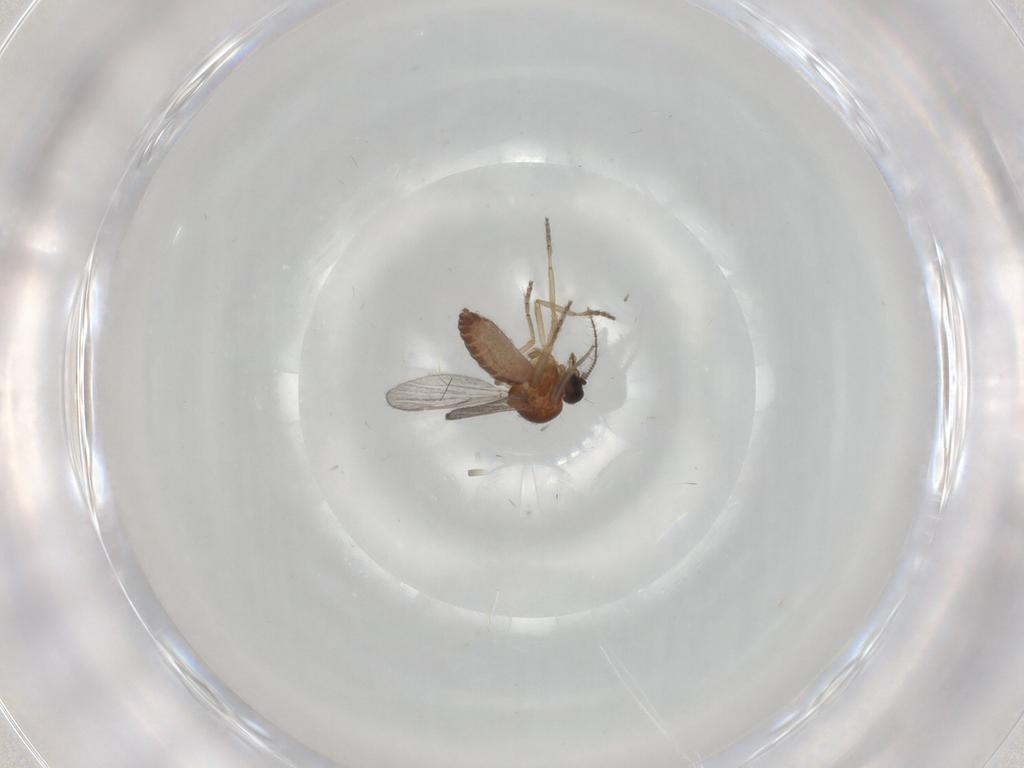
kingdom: Animalia
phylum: Arthropoda
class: Insecta
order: Diptera
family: Ceratopogonidae
